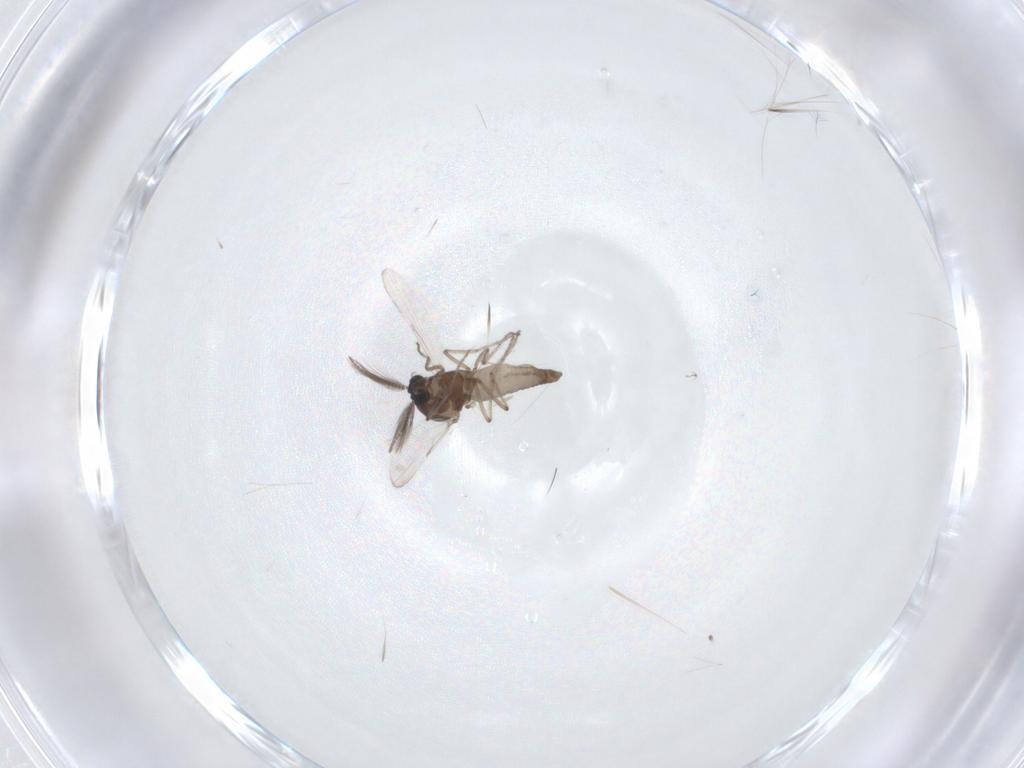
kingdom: Animalia
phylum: Arthropoda
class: Insecta
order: Diptera
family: Ceratopogonidae
